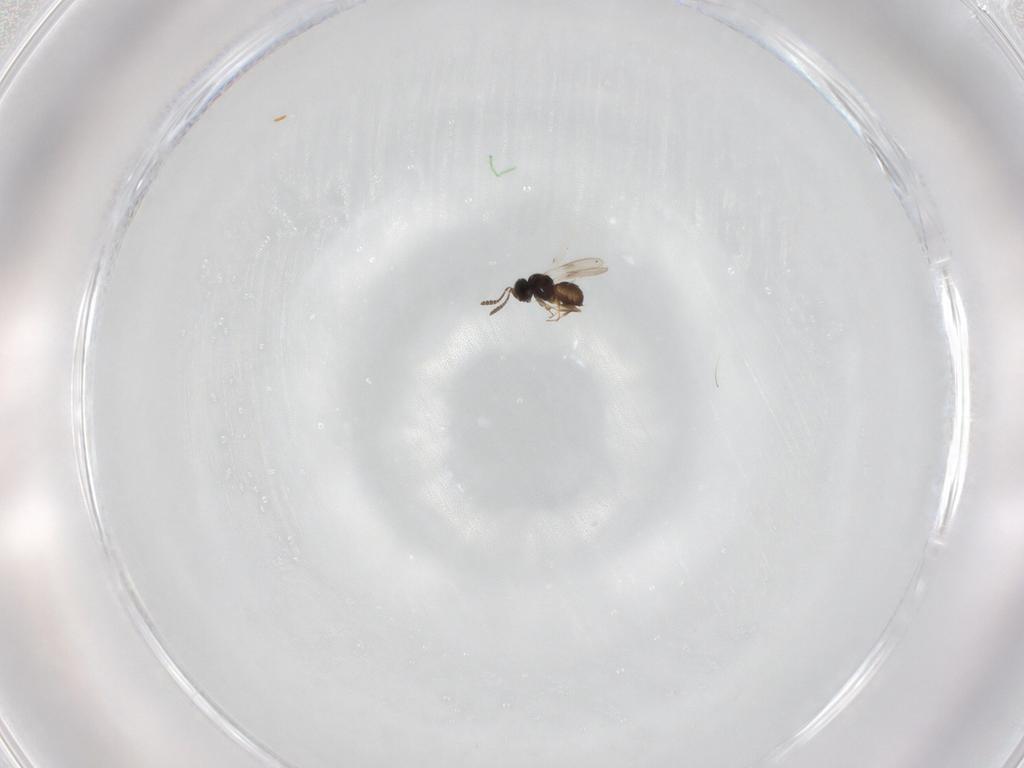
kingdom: Animalia
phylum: Arthropoda
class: Insecta
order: Hymenoptera
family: Scelionidae
